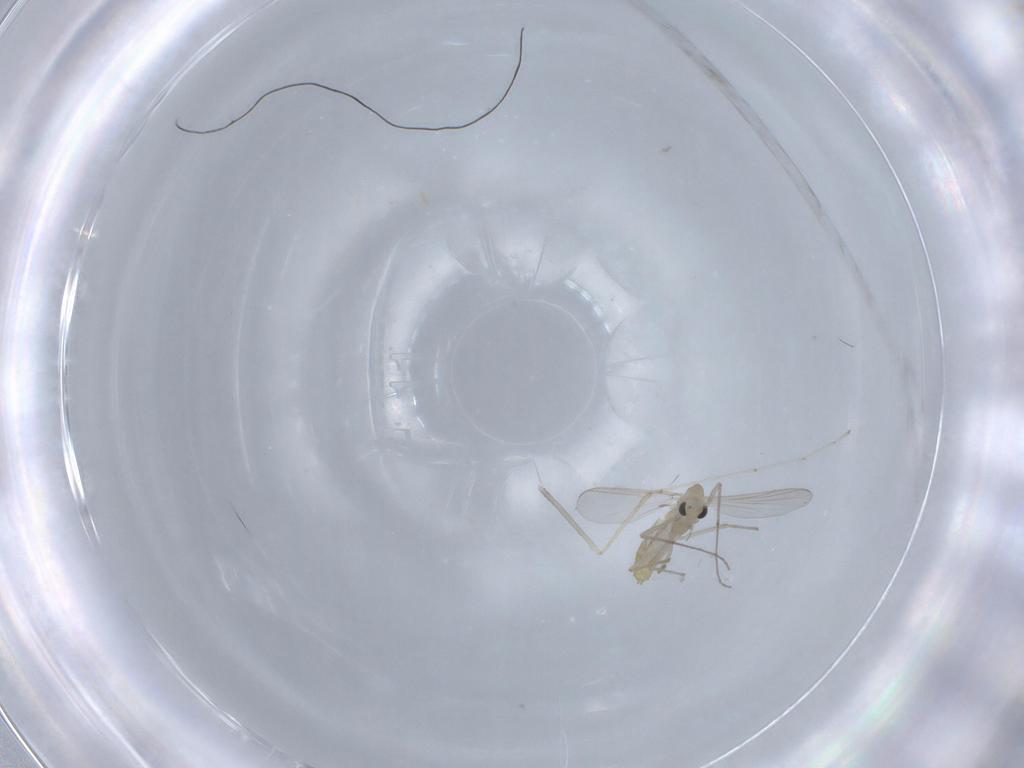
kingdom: Animalia
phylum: Arthropoda
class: Insecta
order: Diptera
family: Cecidomyiidae
